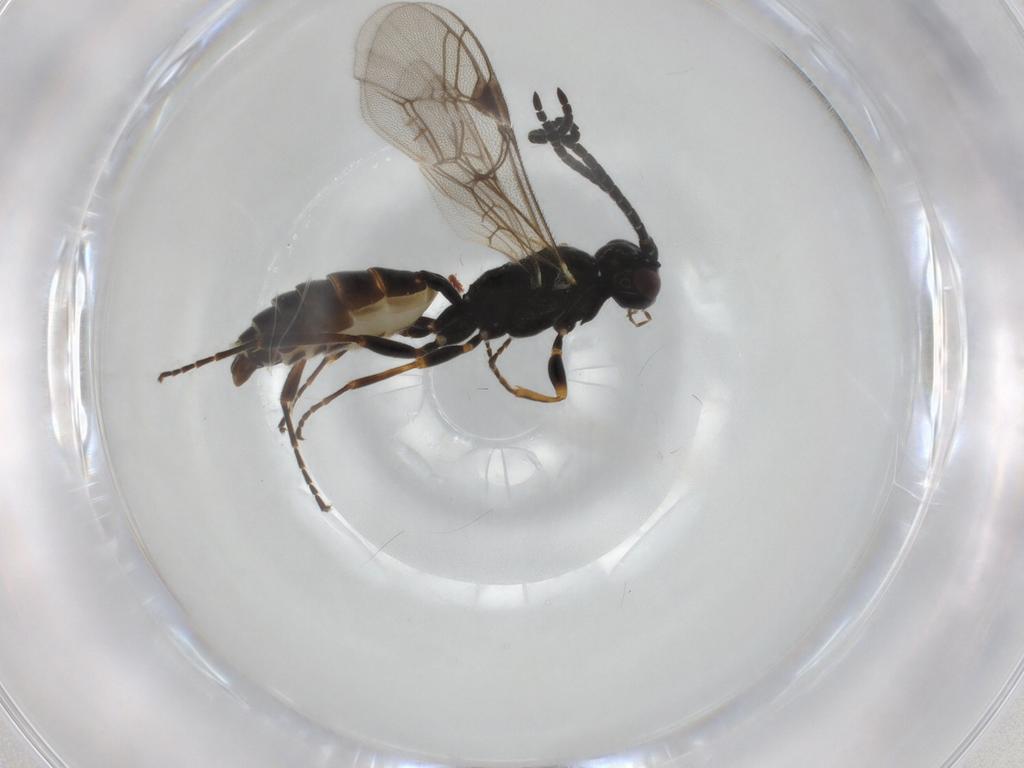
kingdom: Animalia
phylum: Arthropoda
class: Insecta
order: Hymenoptera
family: Ichneumonidae
